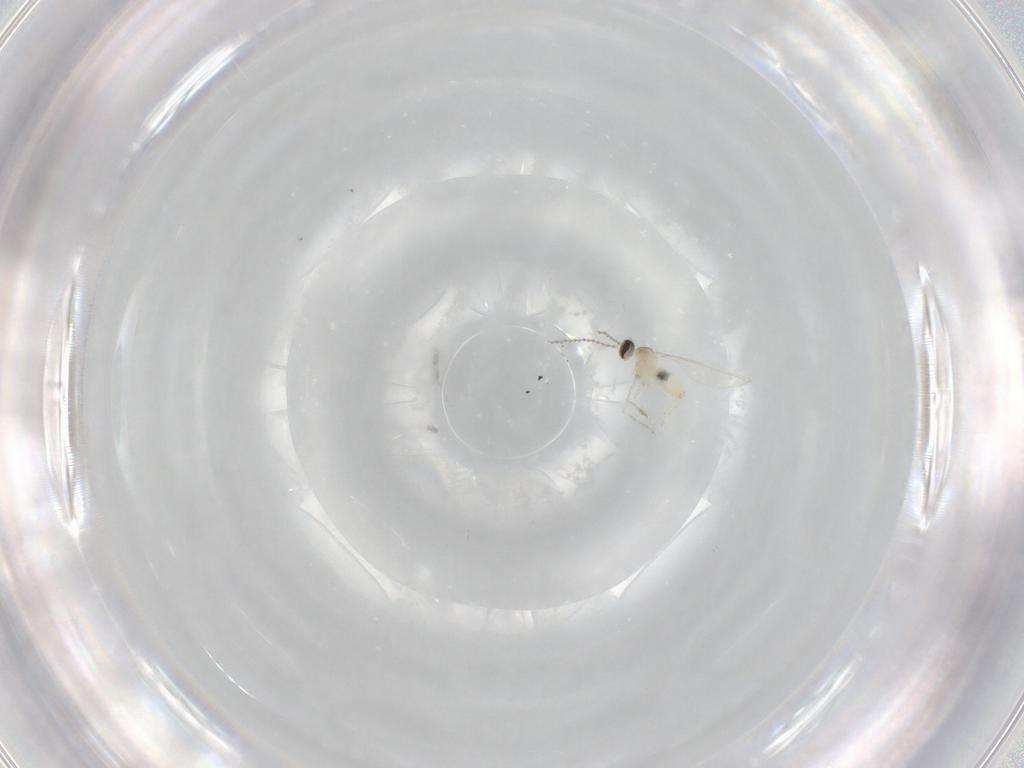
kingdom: Animalia
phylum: Arthropoda
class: Insecta
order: Diptera
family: Cecidomyiidae
